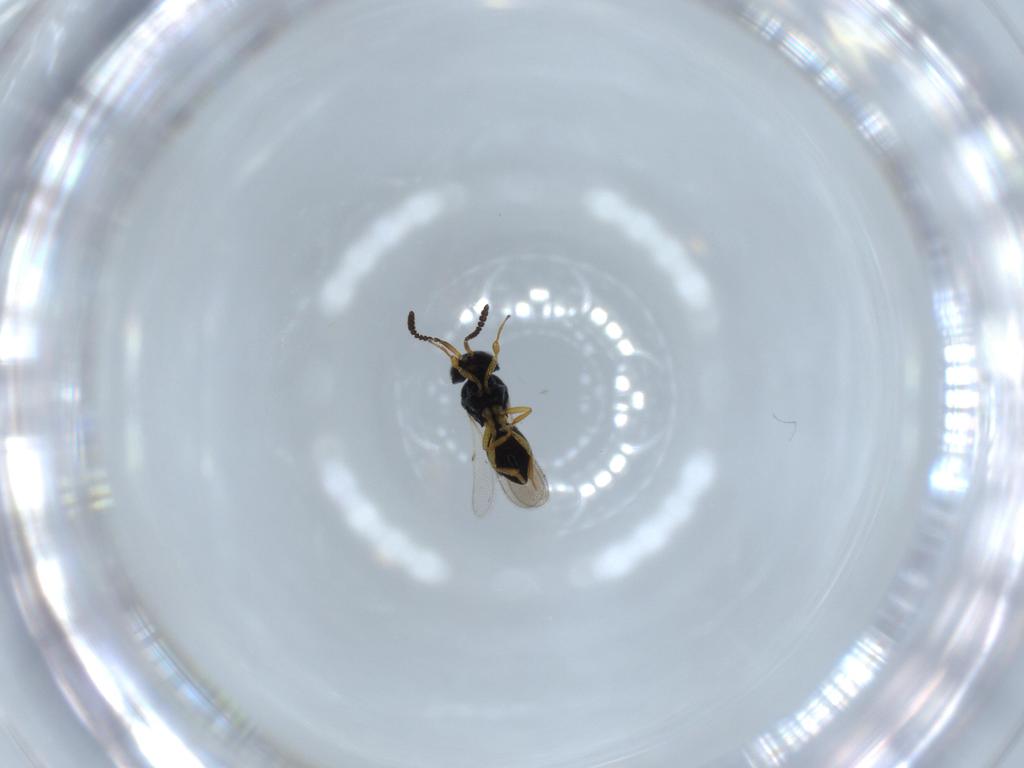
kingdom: Animalia
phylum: Arthropoda
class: Insecta
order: Hymenoptera
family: Scelionidae
